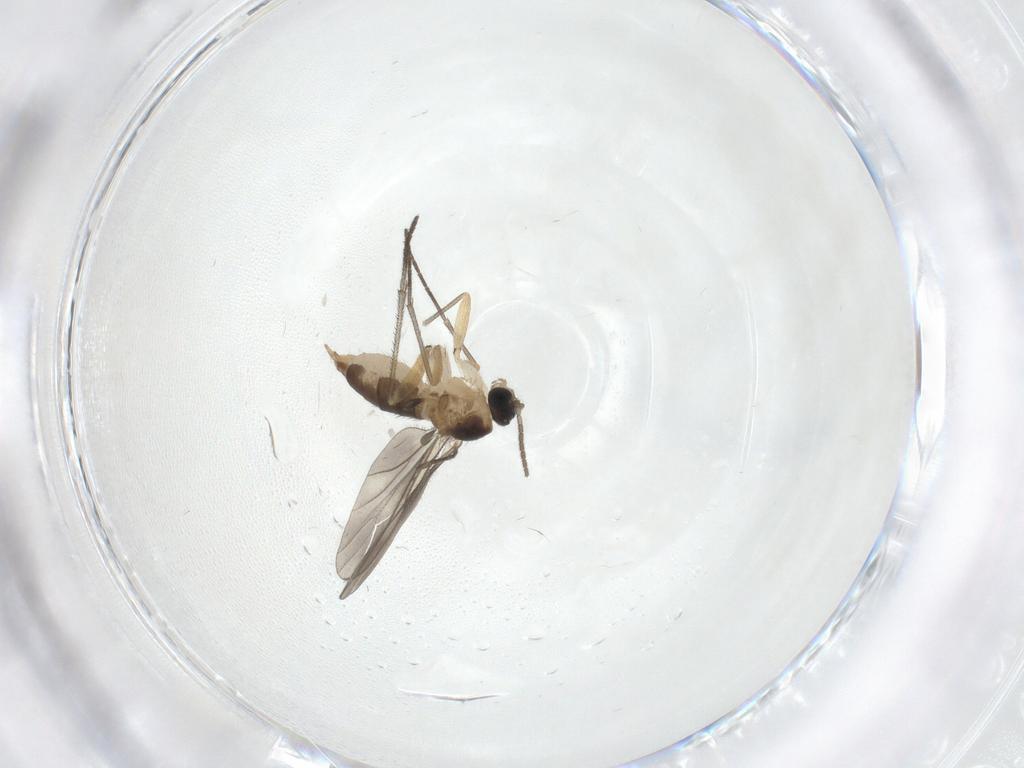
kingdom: Animalia
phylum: Arthropoda
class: Insecta
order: Diptera
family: Sciaridae
